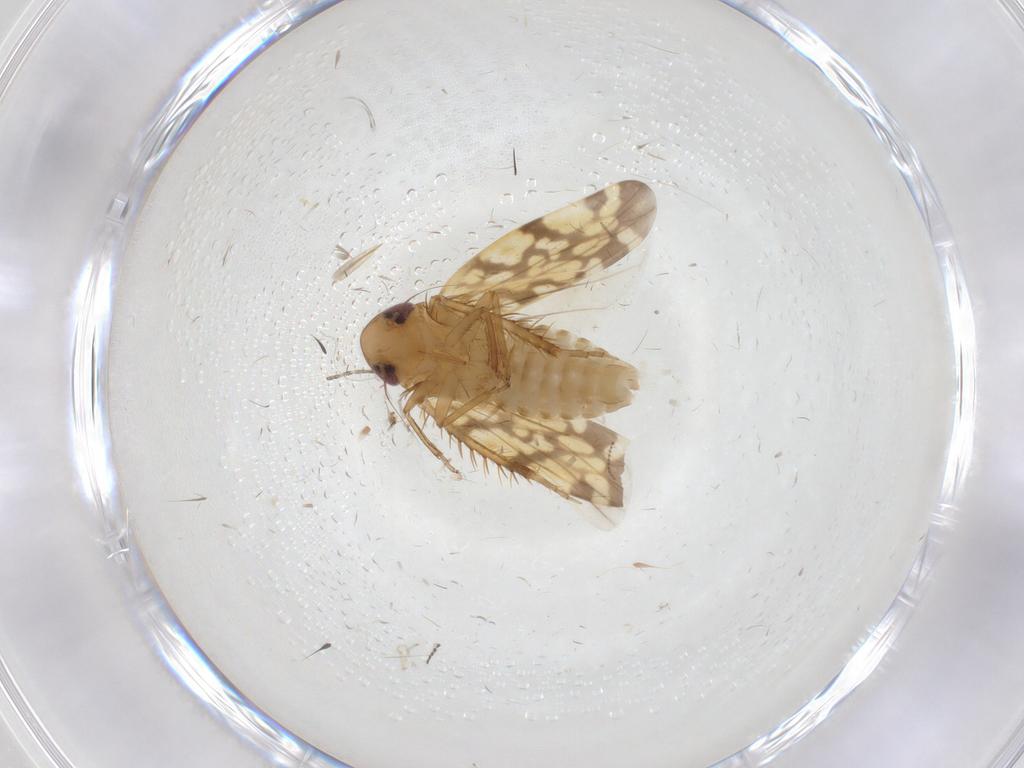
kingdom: Animalia
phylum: Arthropoda
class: Insecta
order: Hemiptera
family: Cicadellidae
